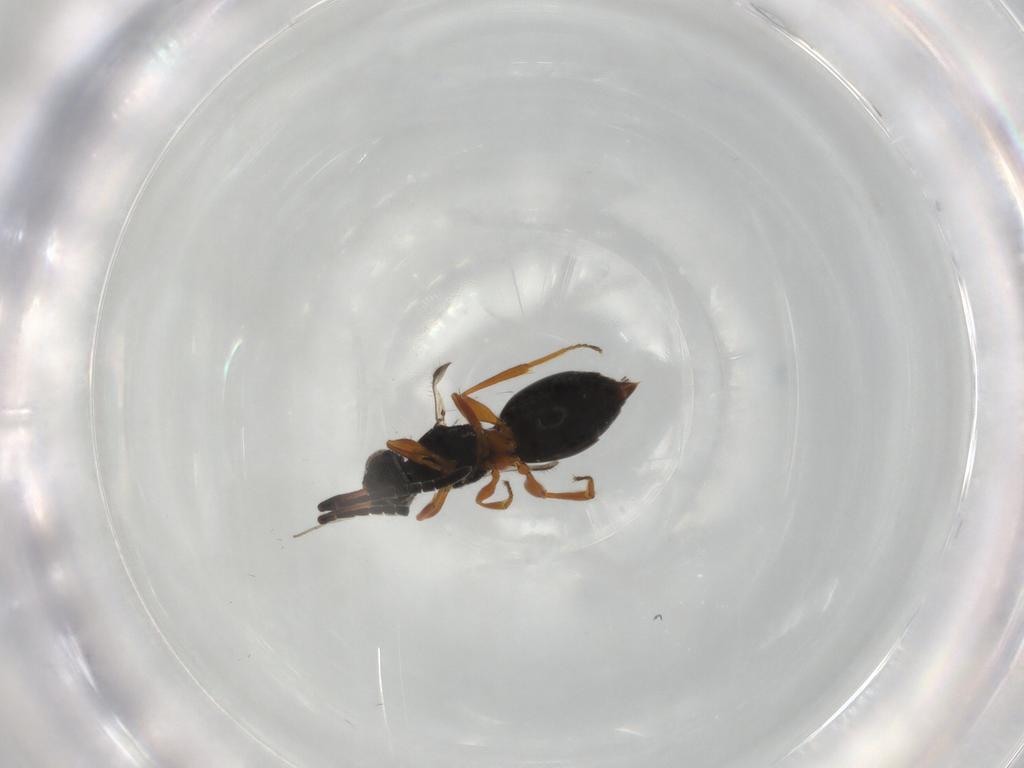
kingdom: Animalia
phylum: Arthropoda
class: Insecta
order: Hymenoptera
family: Megaspilidae
